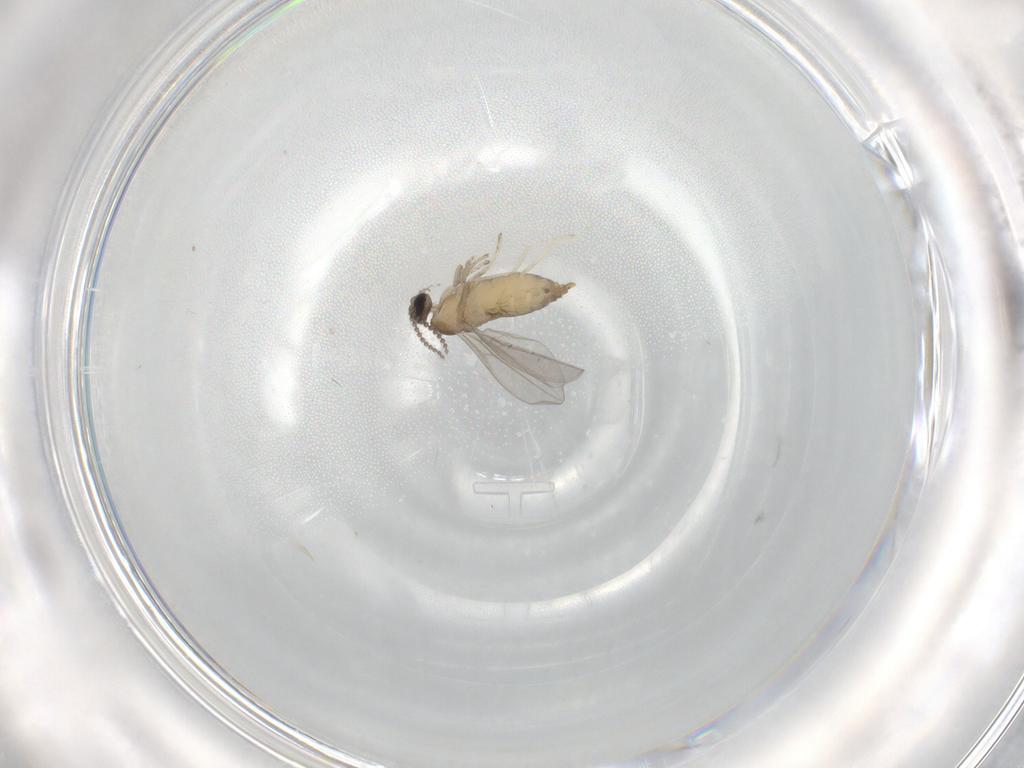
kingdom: Animalia
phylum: Arthropoda
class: Insecta
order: Diptera
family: Cecidomyiidae
